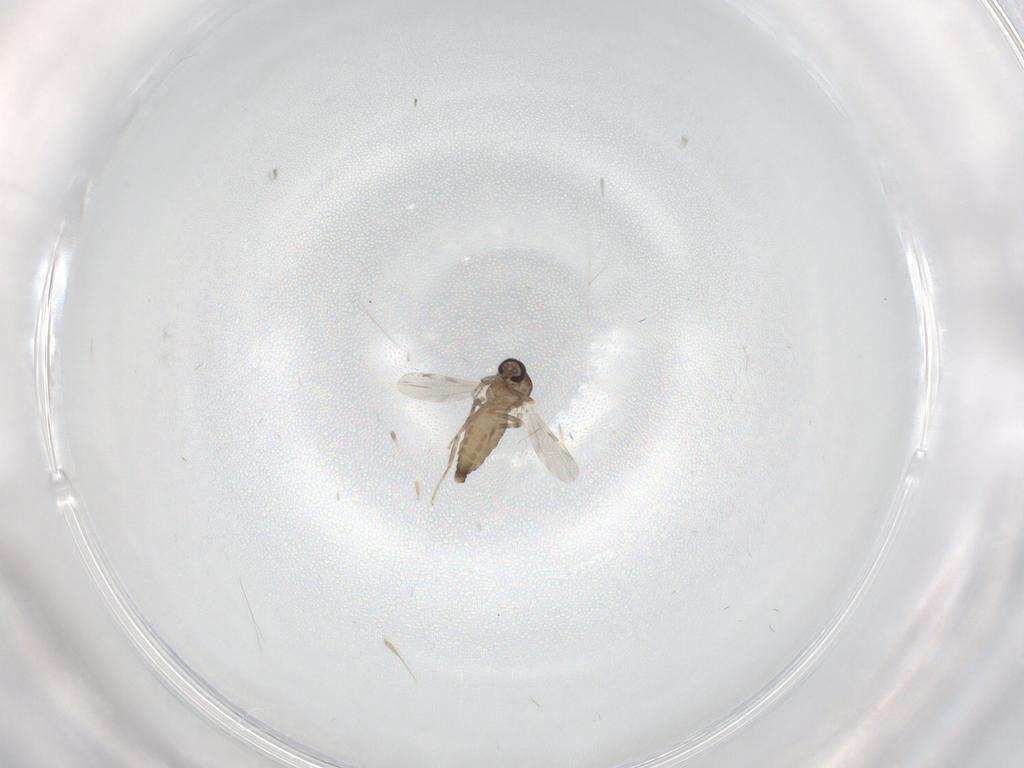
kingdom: Animalia
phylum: Arthropoda
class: Insecta
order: Diptera
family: Ceratopogonidae
